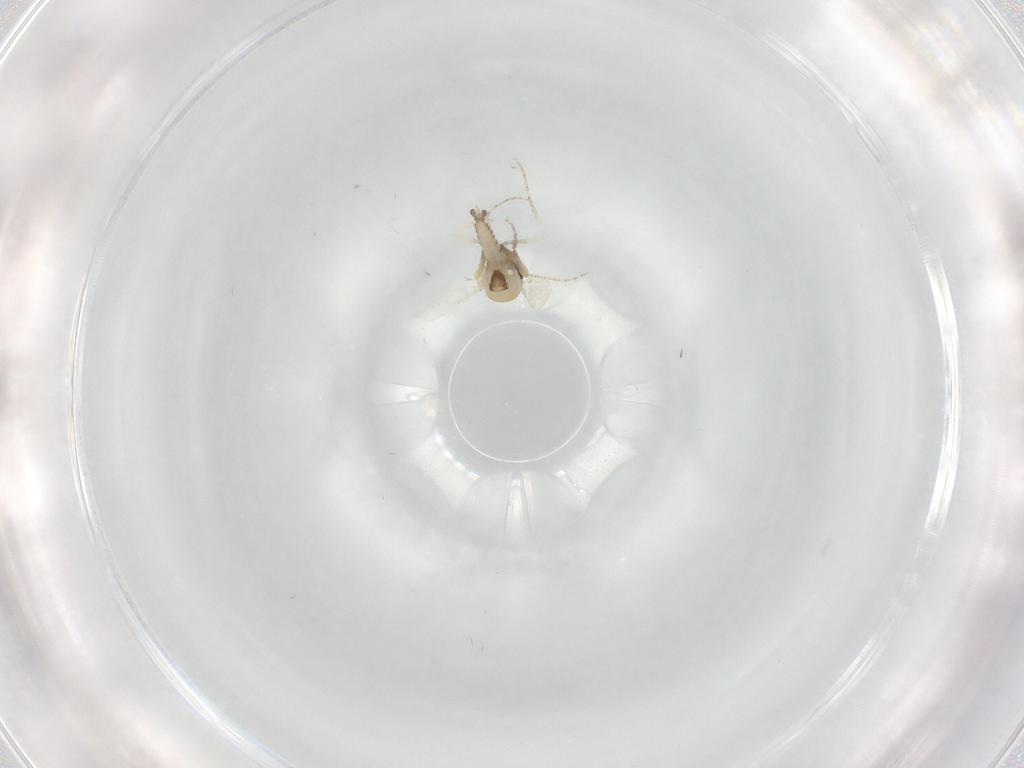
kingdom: Animalia
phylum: Arthropoda
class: Insecta
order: Diptera
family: Ceratopogonidae
